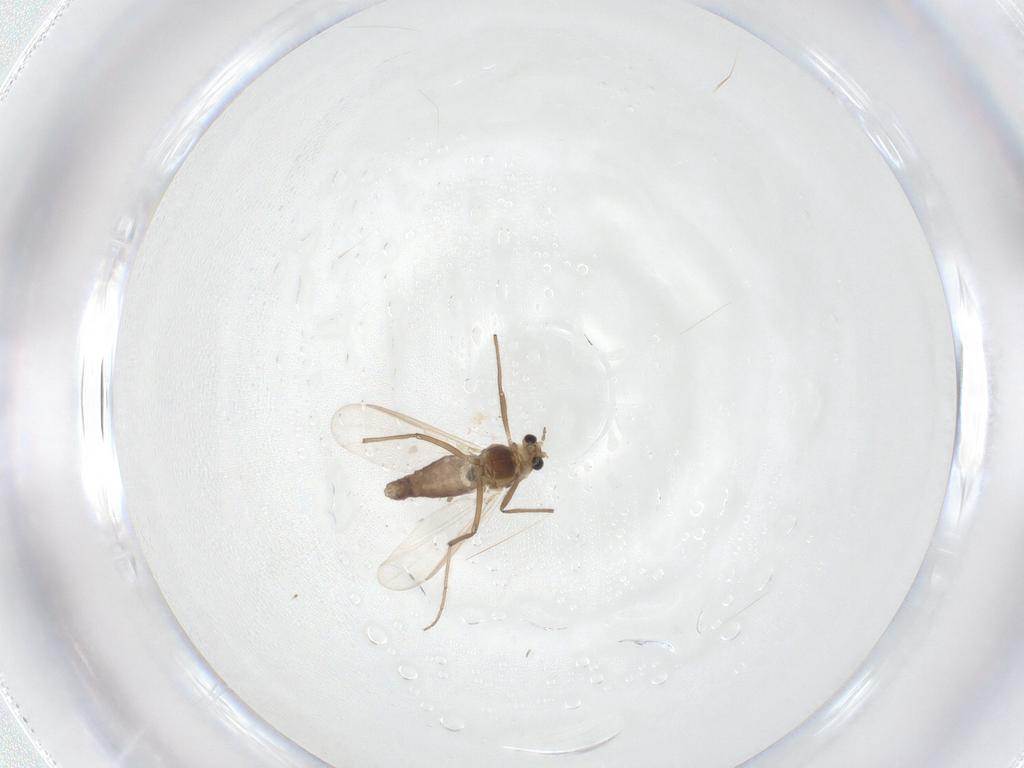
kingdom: Animalia
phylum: Arthropoda
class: Insecta
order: Diptera
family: Chironomidae
